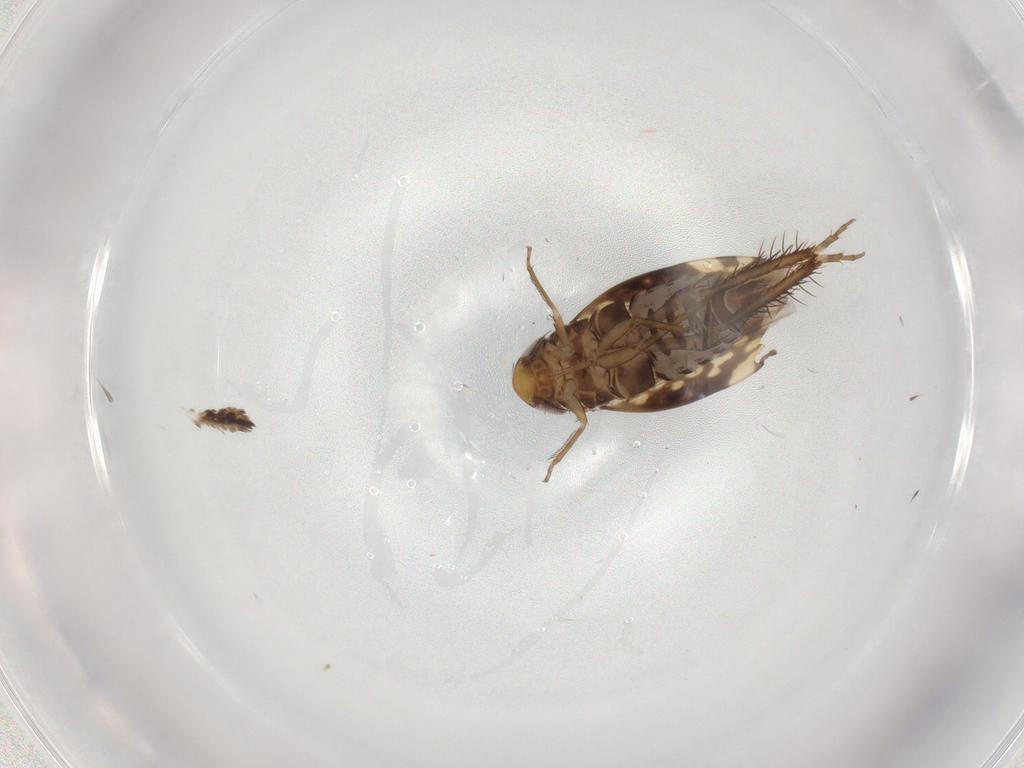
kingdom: Animalia
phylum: Arthropoda
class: Insecta
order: Hemiptera
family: Cicadellidae
